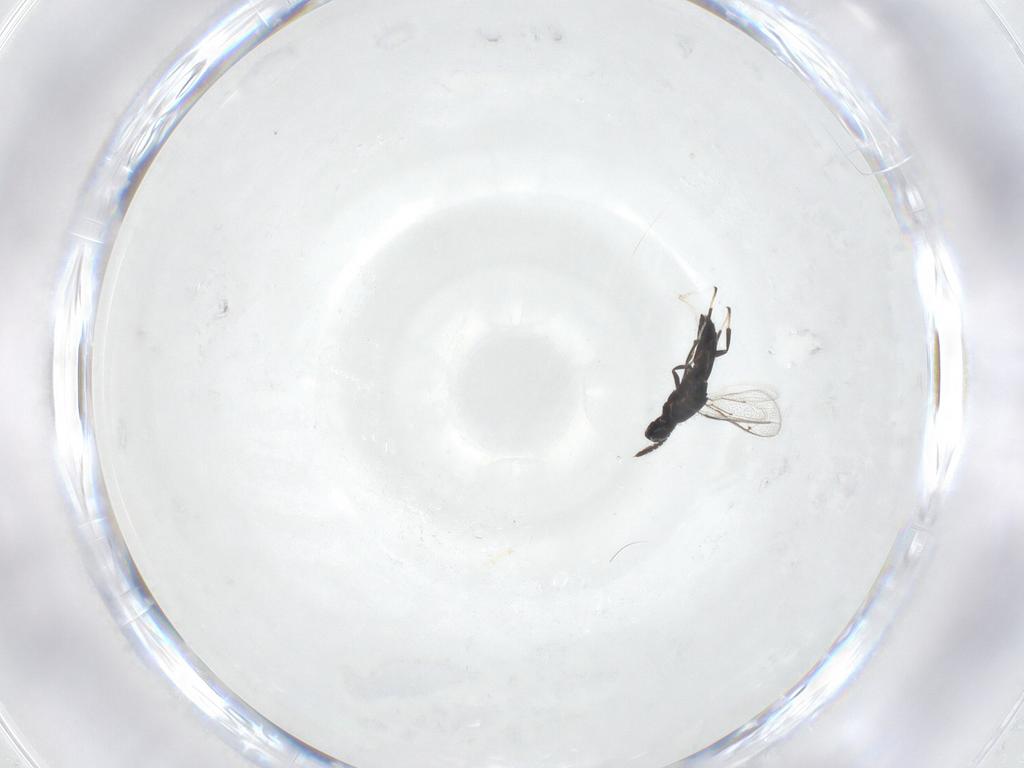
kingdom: Animalia
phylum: Arthropoda
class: Insecta
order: Hymenoptera
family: Eulophidae
